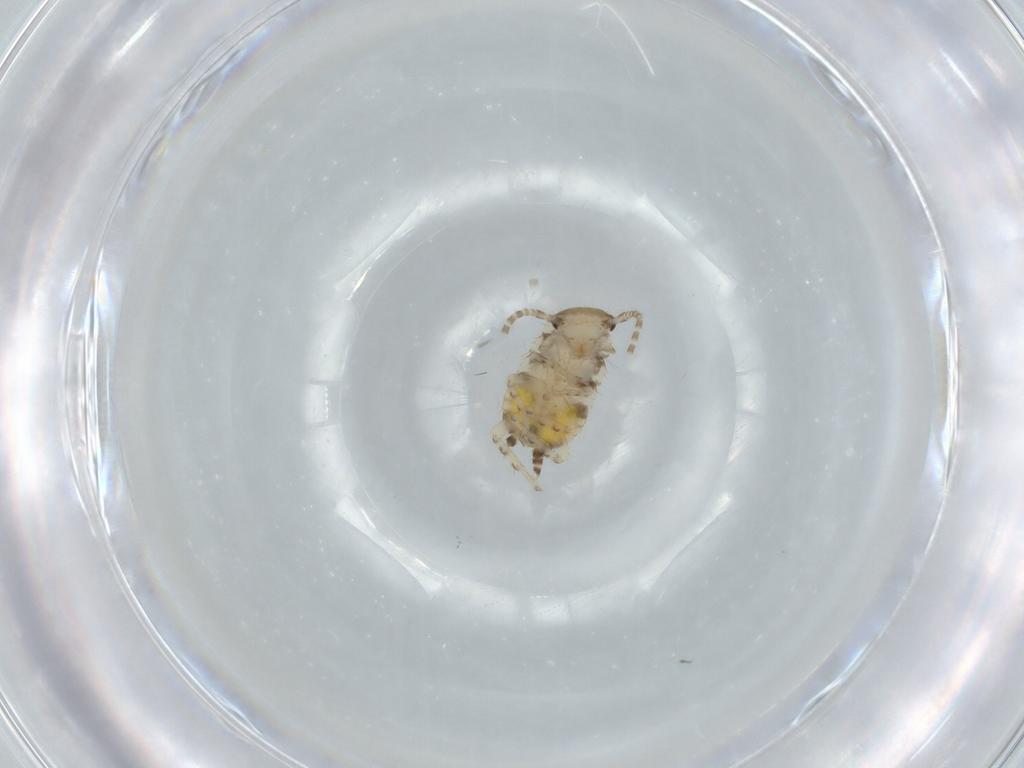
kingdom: Animalia
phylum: Arthropoda
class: Insecta
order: Blattodea
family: Ectobiidae
